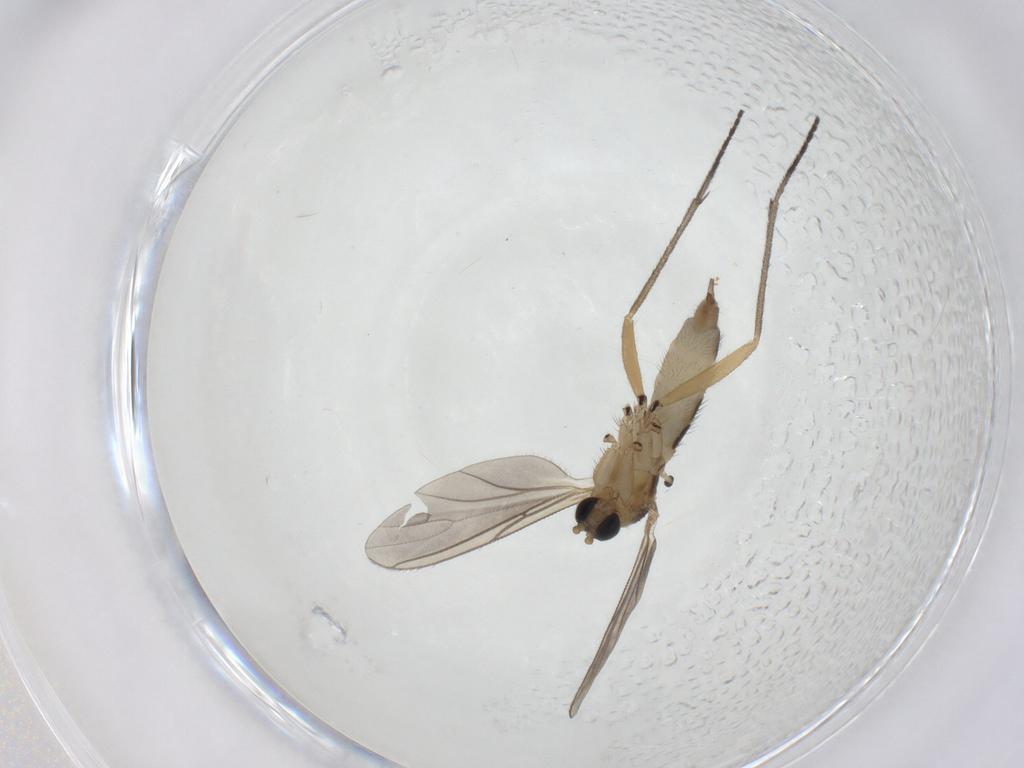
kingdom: Animalia
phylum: Arthropoda
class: Insecta
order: Diptera
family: Sciaridae
